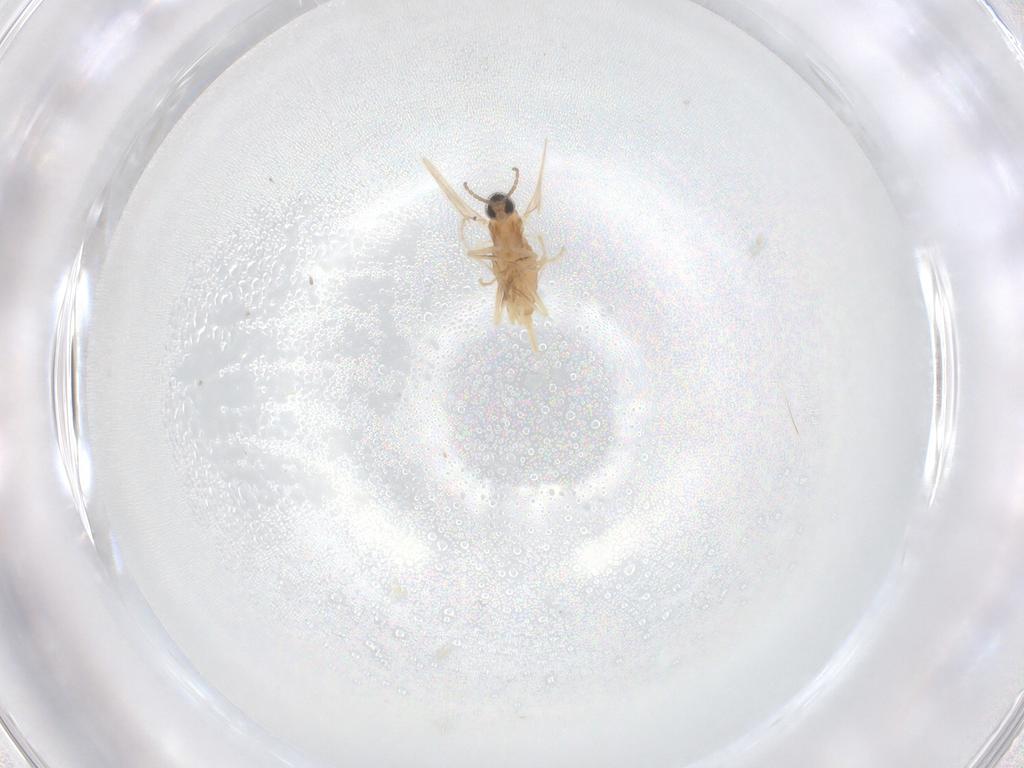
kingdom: Animalia
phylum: Arthropoda
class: Insecta
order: Diptera
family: Cecidomyiidae
